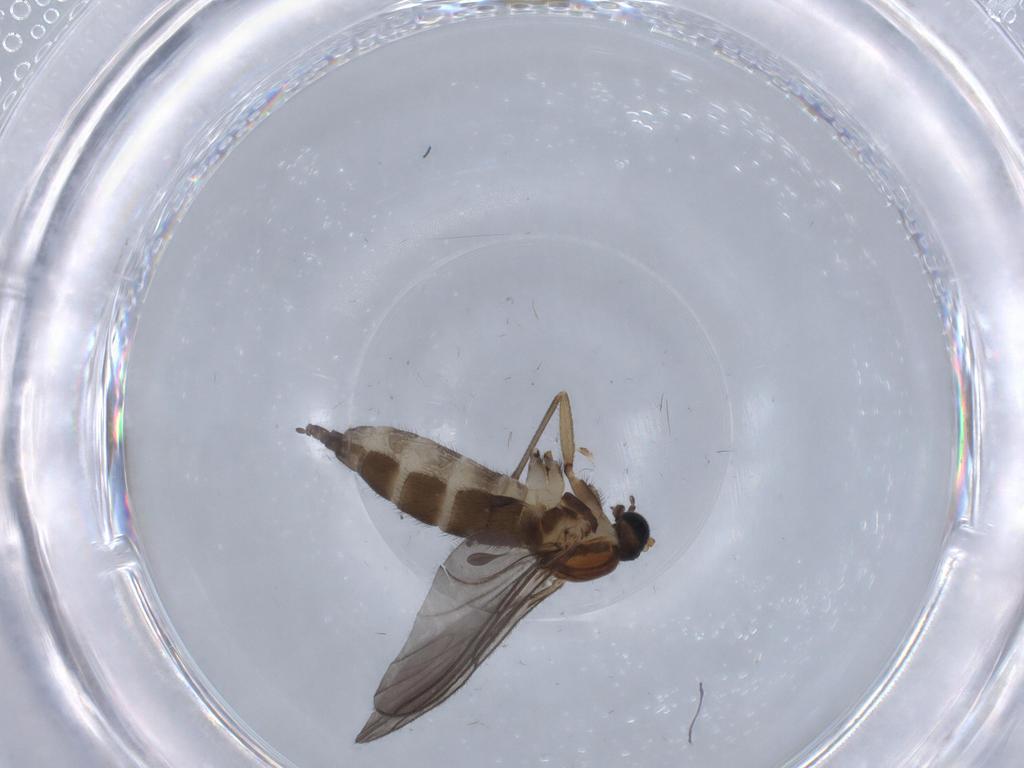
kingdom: Animalia
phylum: Arthropoda
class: Insecta
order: Diptera
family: Sciaridae
